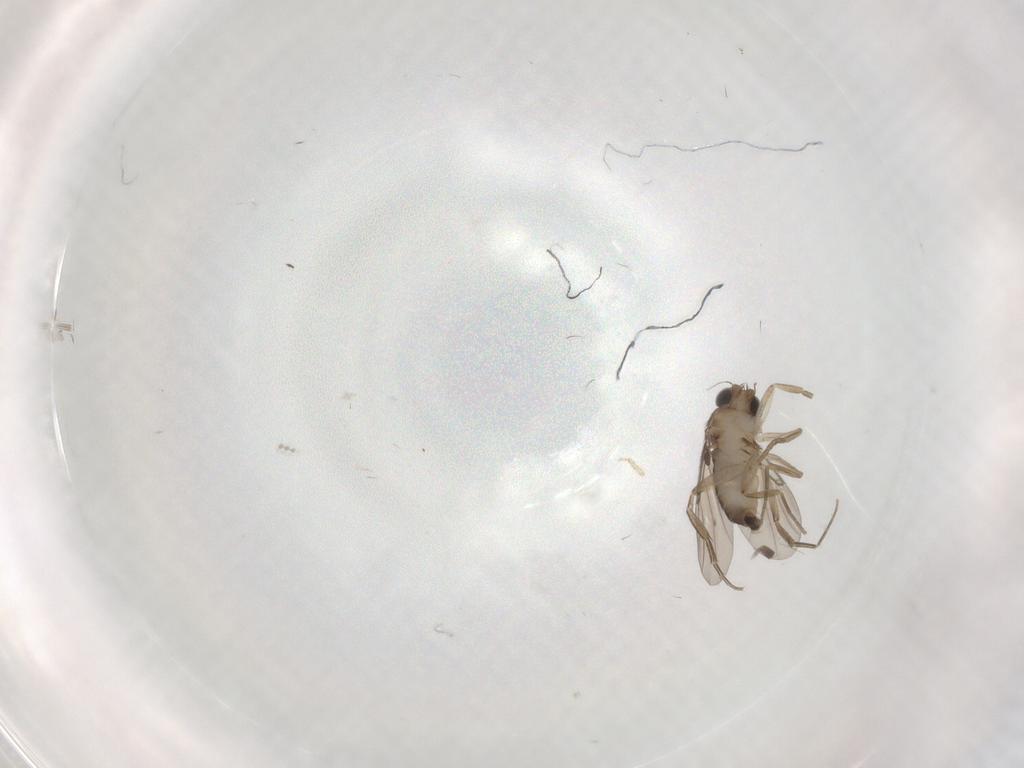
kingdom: Animalia
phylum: Arthropoda
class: Insecta
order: Diptera
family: Phoridae
